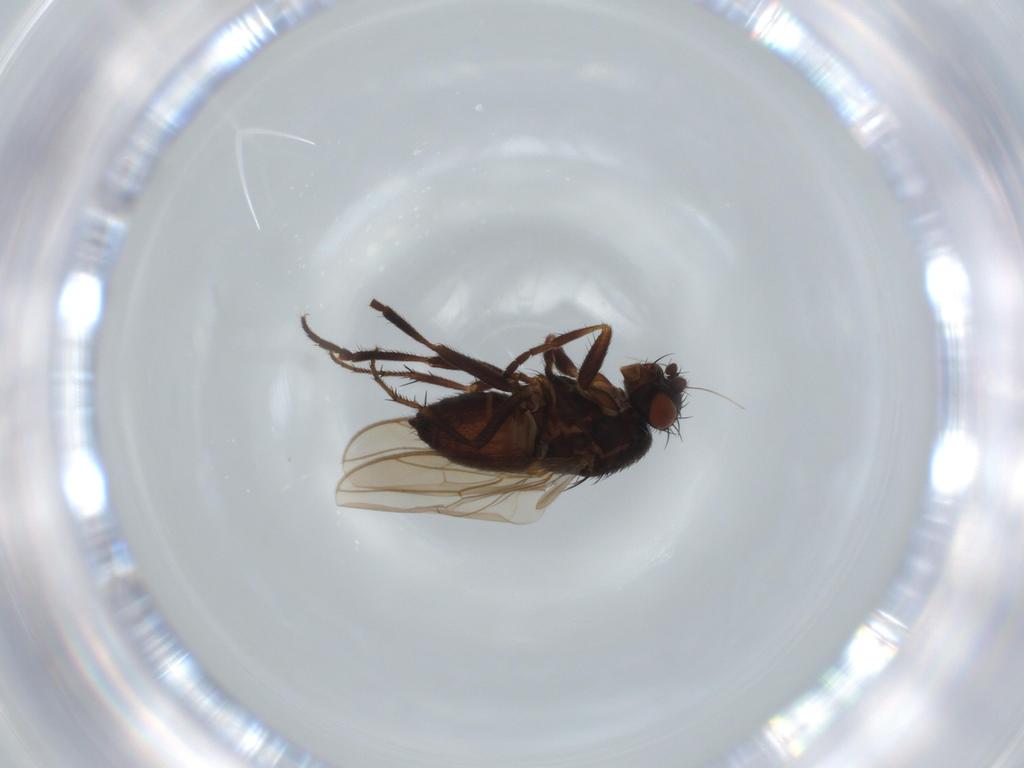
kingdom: Animalia
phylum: Arthropoda
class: Insecta
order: Diptera
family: Sphaeroceridae
